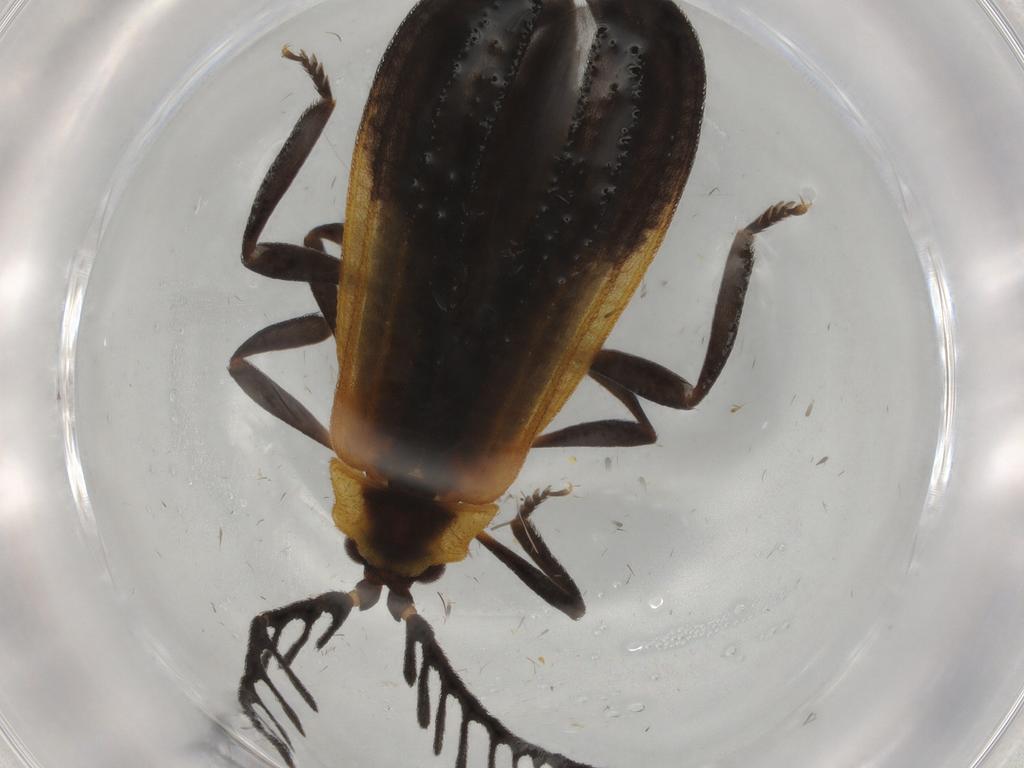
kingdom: Animalia
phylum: Arthropoda
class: Insecta
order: Coleoptera
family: Lycidae
